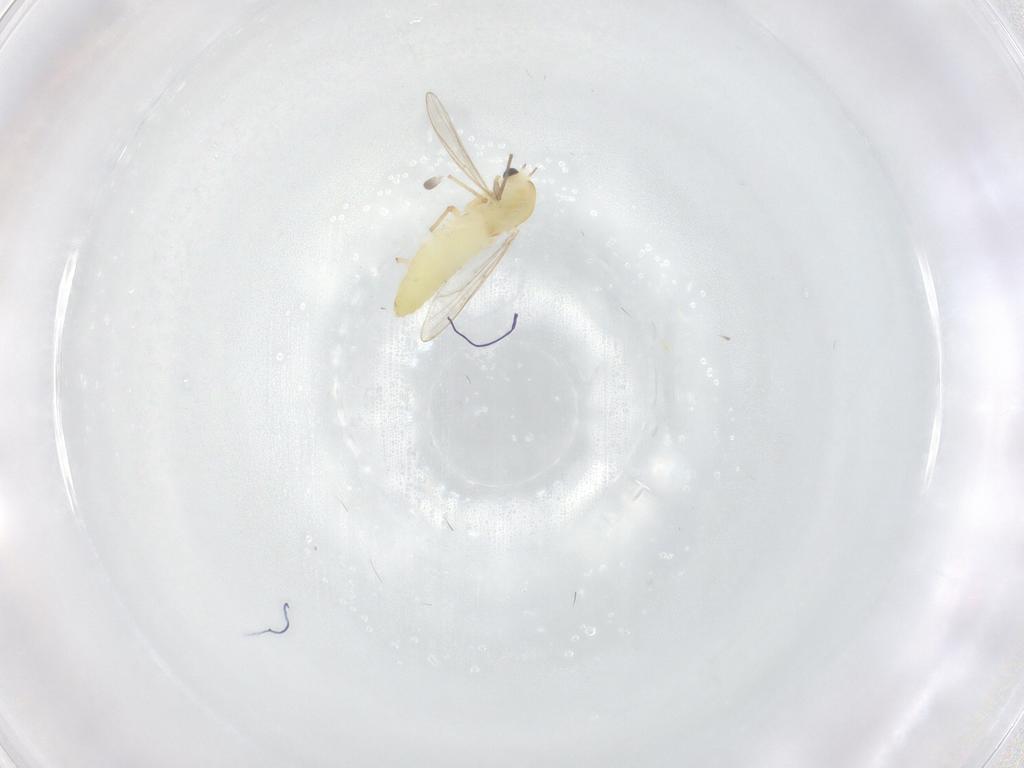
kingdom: Animalia
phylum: Arthropoda
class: Insecta
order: Diptera
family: Chironomidae
